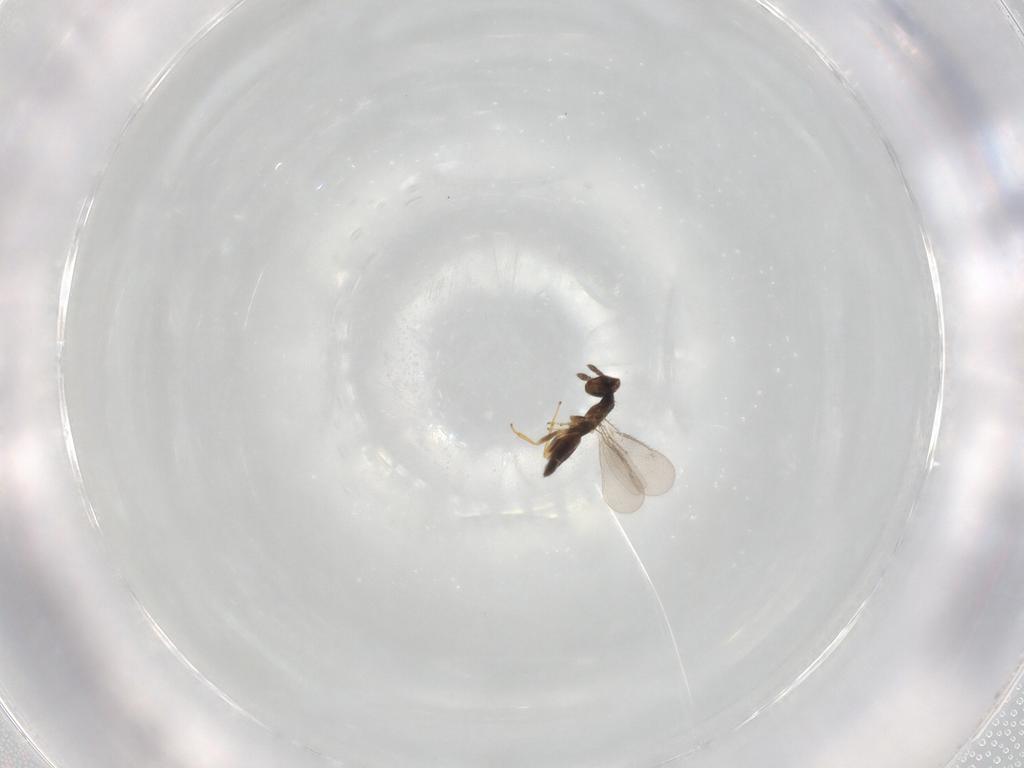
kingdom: Animalia
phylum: Arthropoda
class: Insecta
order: Hymenoptera
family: Eulophidae
